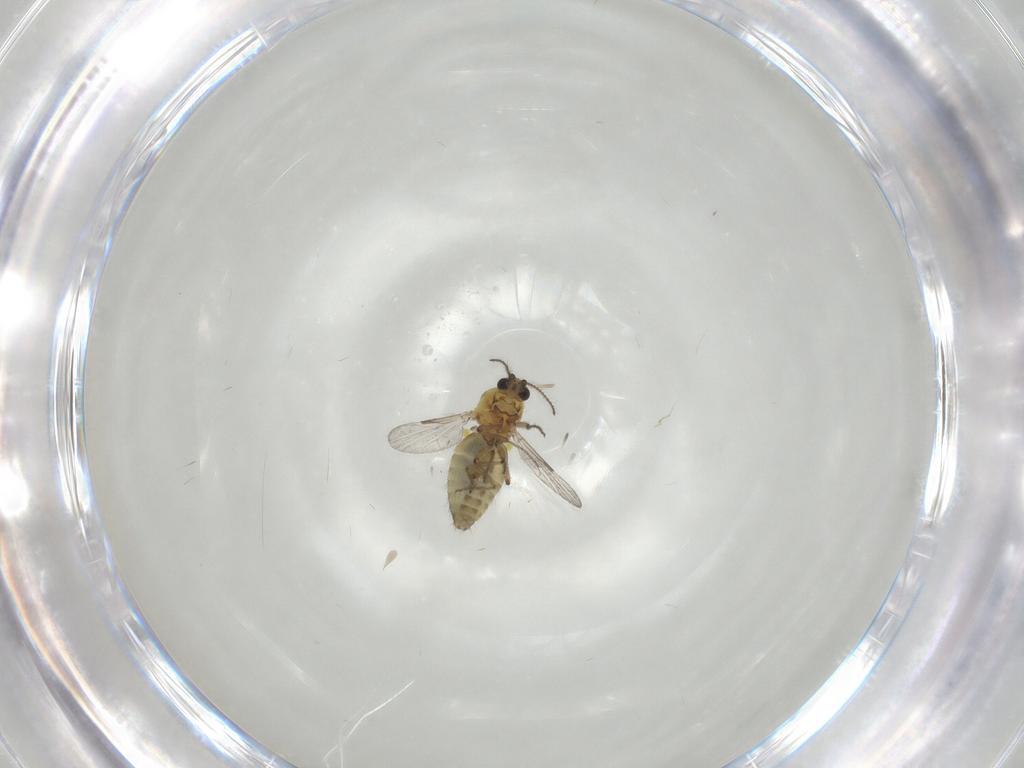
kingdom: Animalia
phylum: Arthropoda
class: Insecta
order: Diptera
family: Ceratopogonidae
